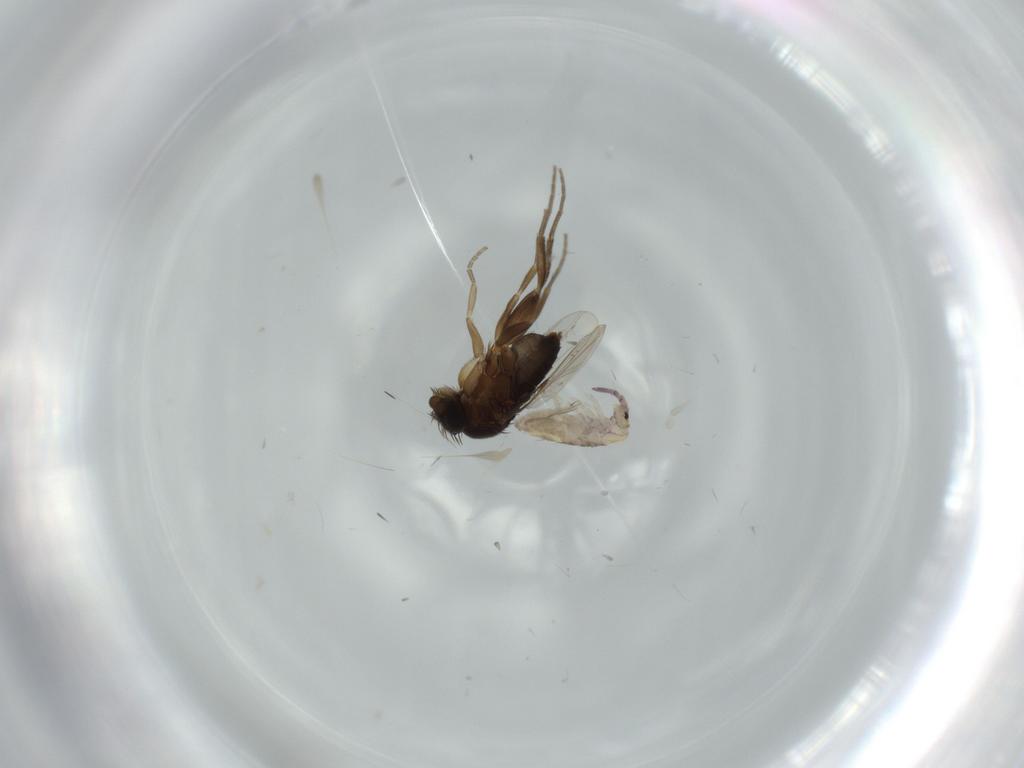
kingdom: Animalia
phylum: Arthropoda
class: Insecta
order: Diptera
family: Phoridae
